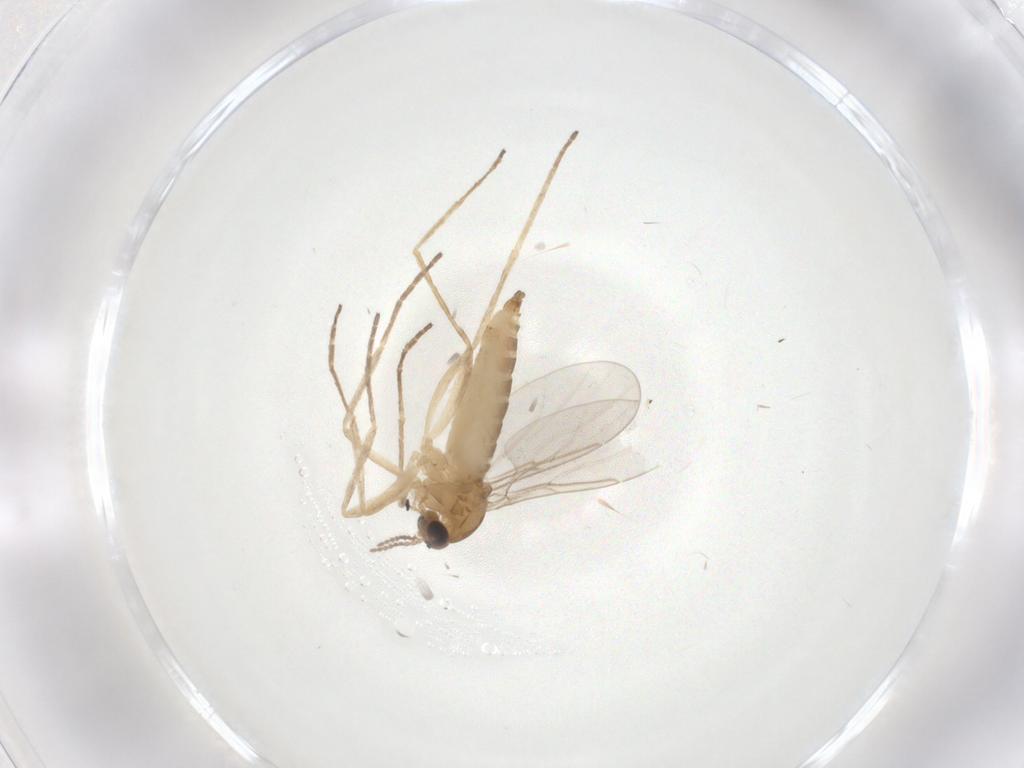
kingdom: Animalia
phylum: Arthropoda
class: Insecta
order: Diptera
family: Cecidomyiidae
